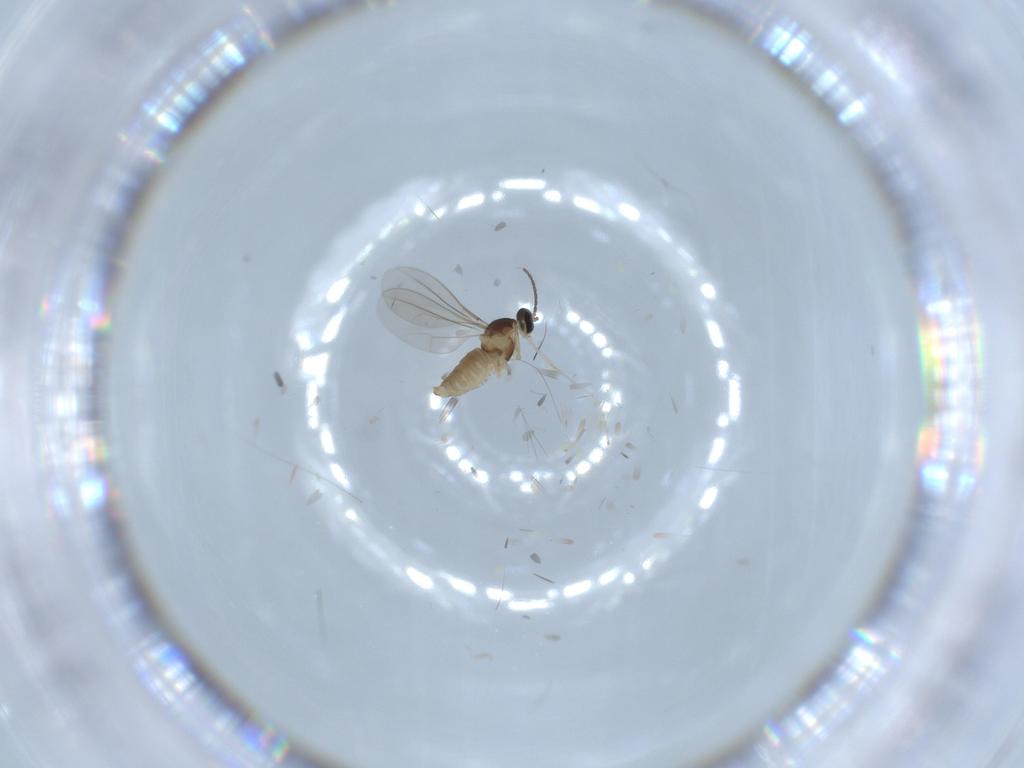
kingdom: Animalia
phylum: Arthropoda
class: Insecta
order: Diptera
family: Cecidomyiidae
